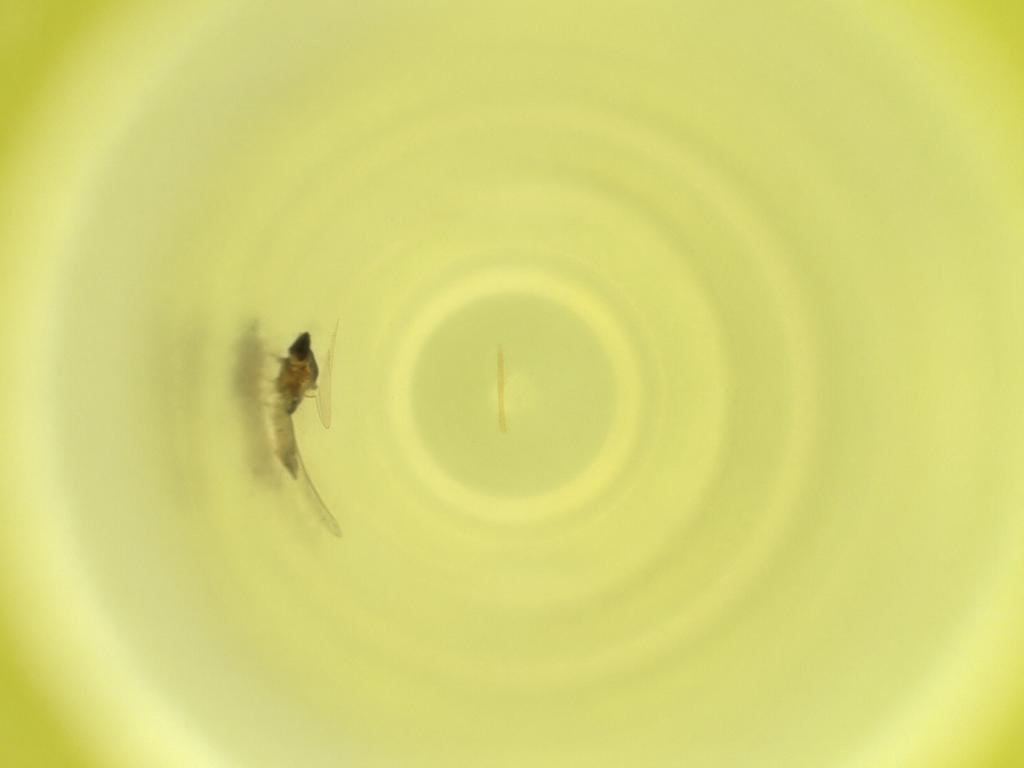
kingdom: Animalia
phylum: Arthropoda
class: Insecta
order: Diptera
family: Cecidomyiidae
